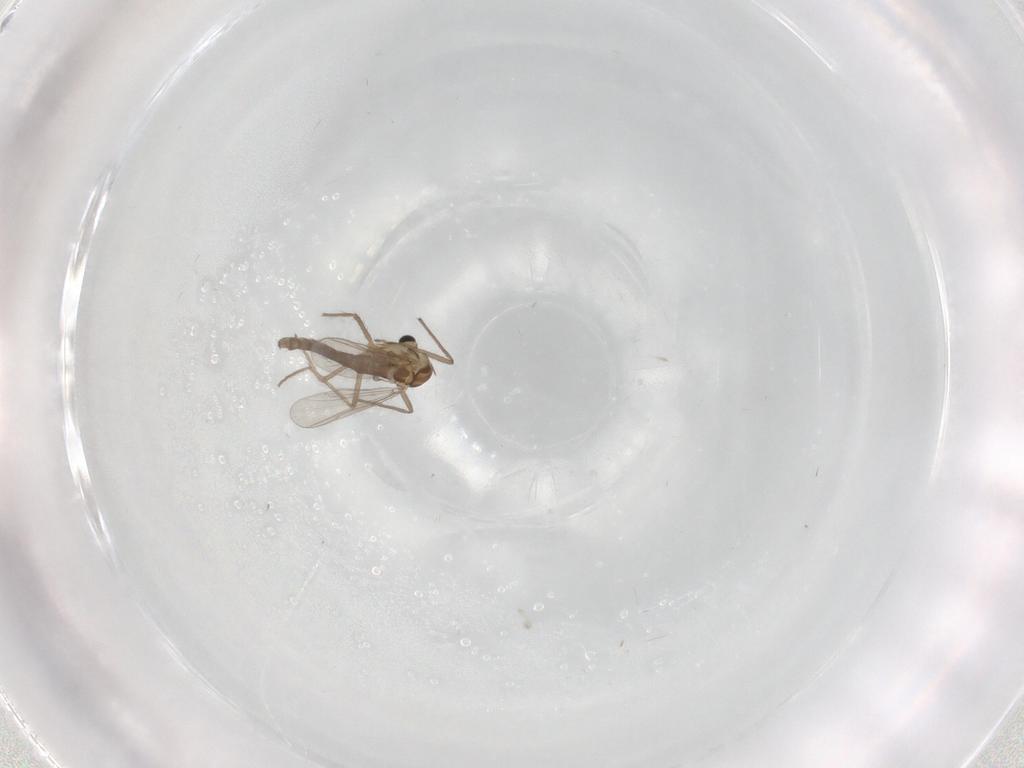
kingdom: Animalia
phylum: Arthropoda
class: Insecta
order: Diptera
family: Chironomidae
